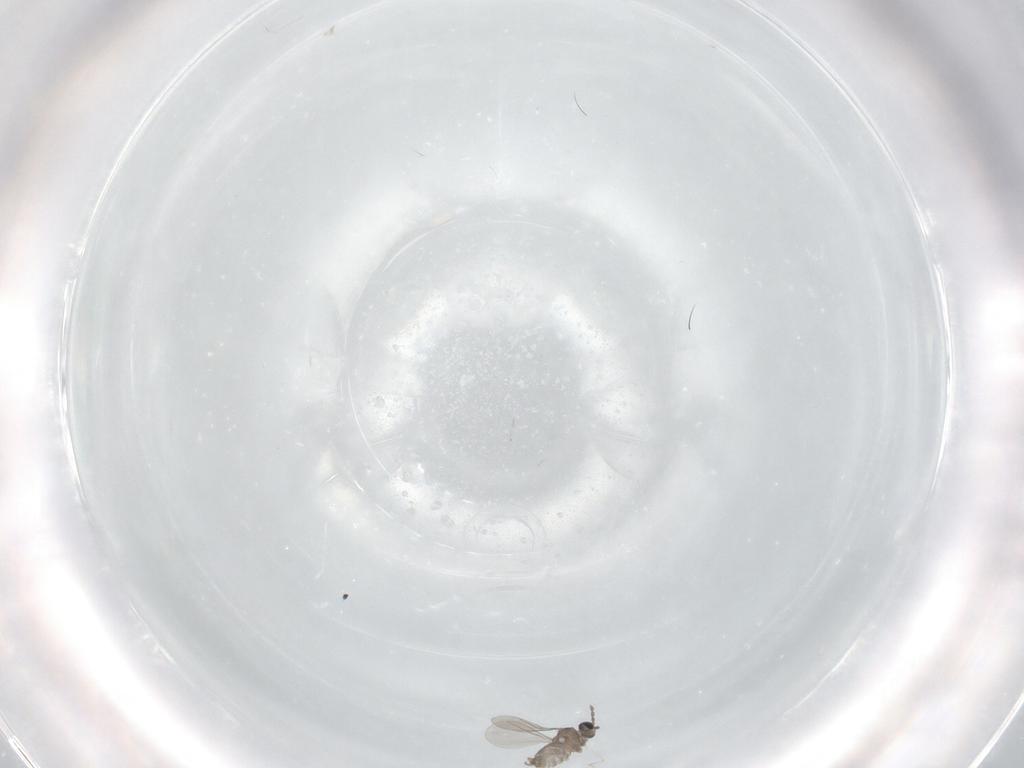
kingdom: Animalia
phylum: Arthropoda
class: Insecta
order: Diptera
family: Cecidomyiidae
